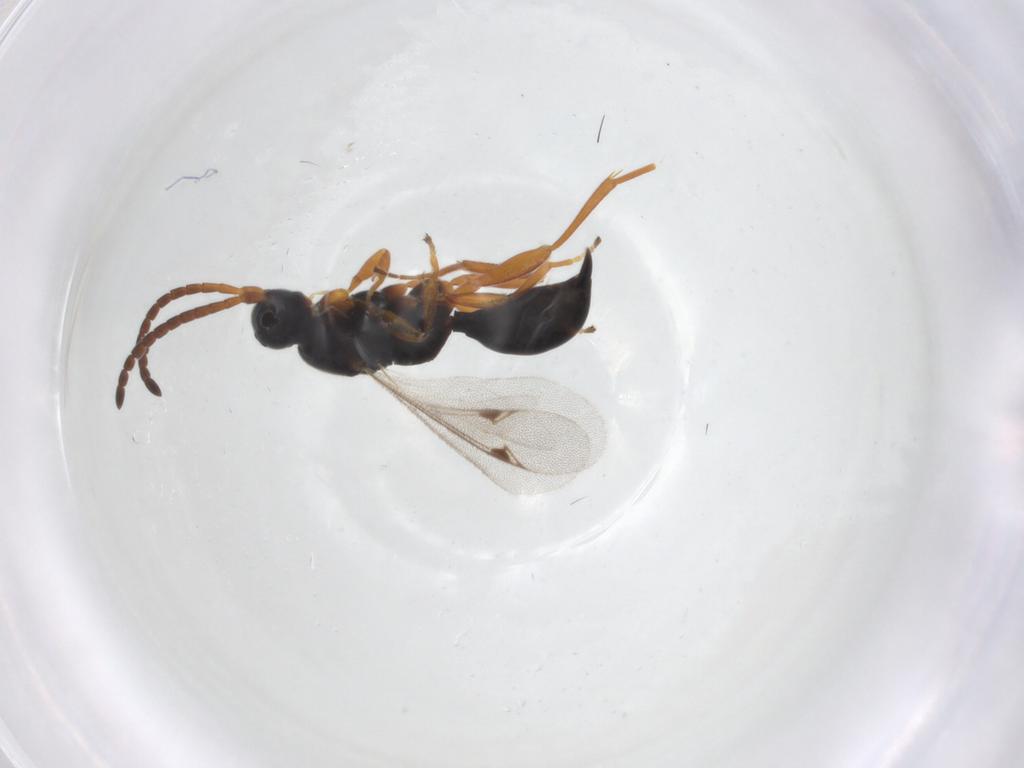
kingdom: Animalia
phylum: Arthropoda
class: Insecta
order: Hymenoptera
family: Proctotrupidae
